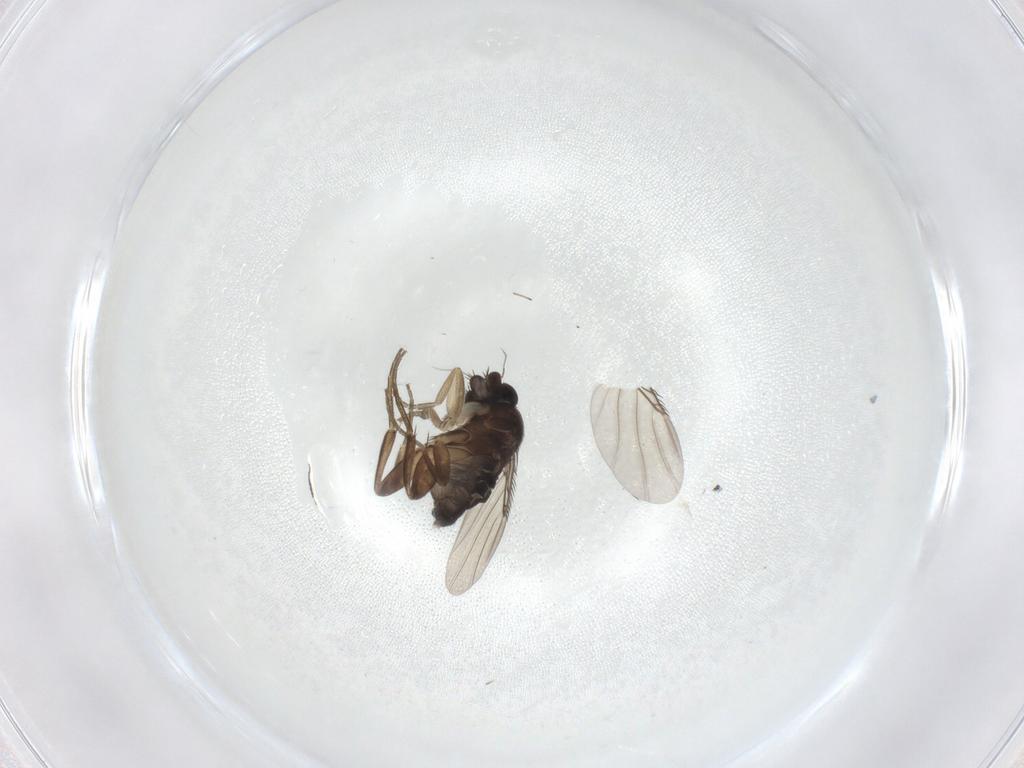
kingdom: Animalia
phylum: Arthropoda
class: Insecta
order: Diptera
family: Phoridae
